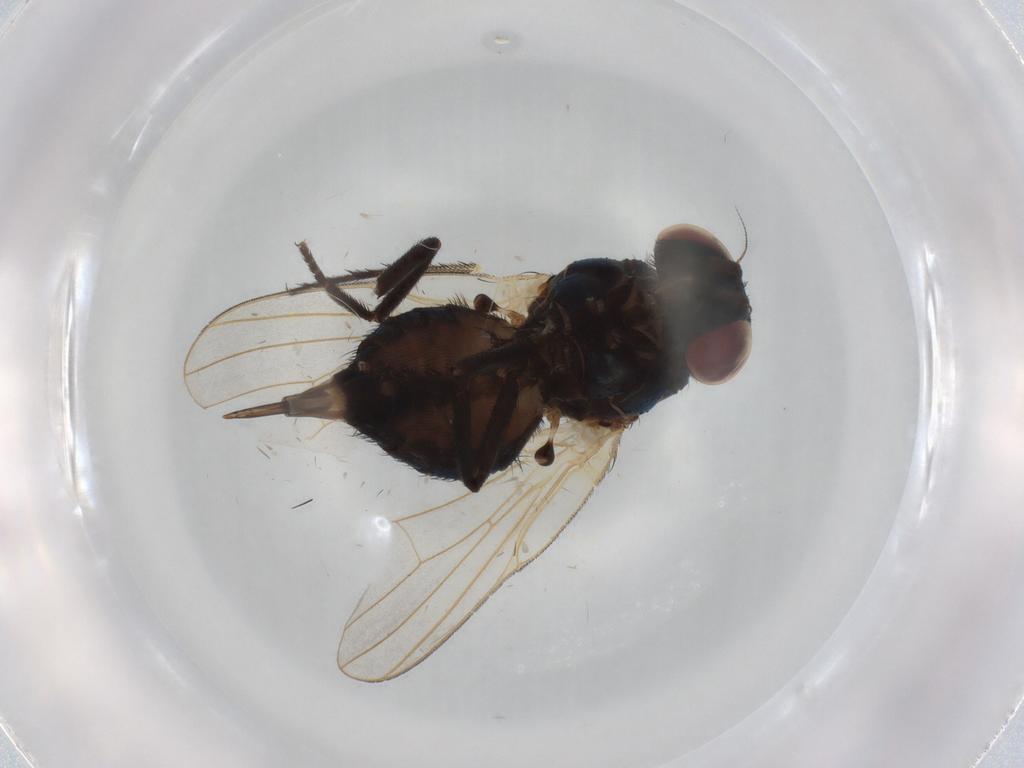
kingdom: Animalia
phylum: Arthropoda
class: Insecta
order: Diptera
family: Lonchaeidae
